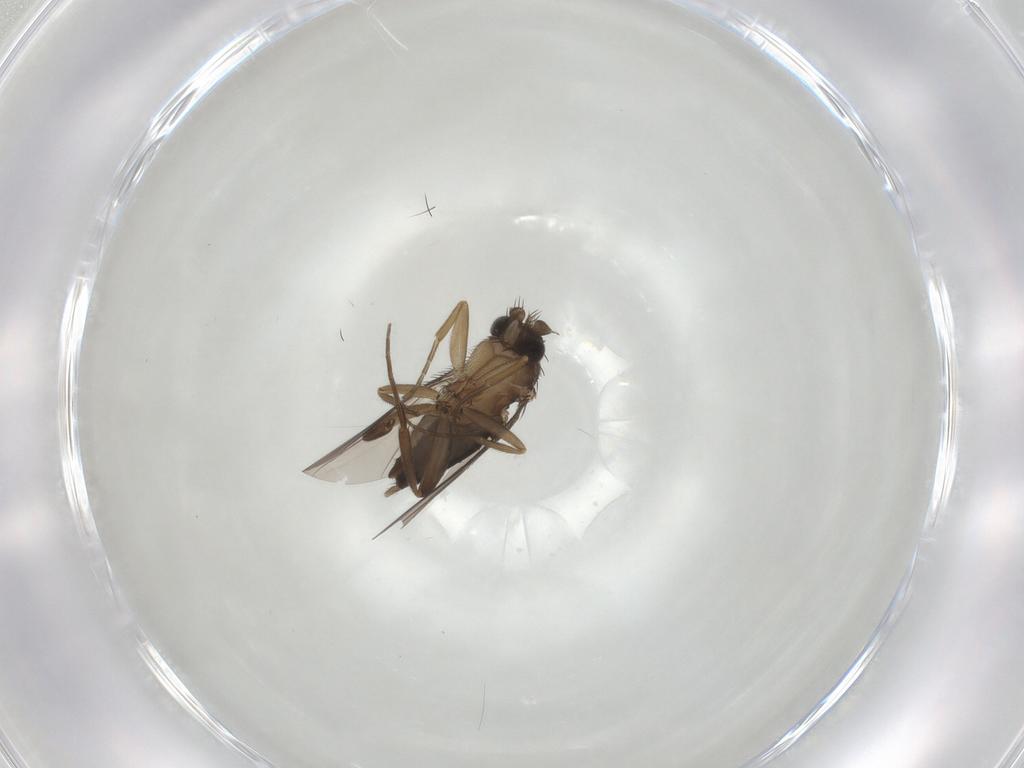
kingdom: Animalia
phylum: Arthropoda
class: Insecta
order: Diptera
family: Phoridae
